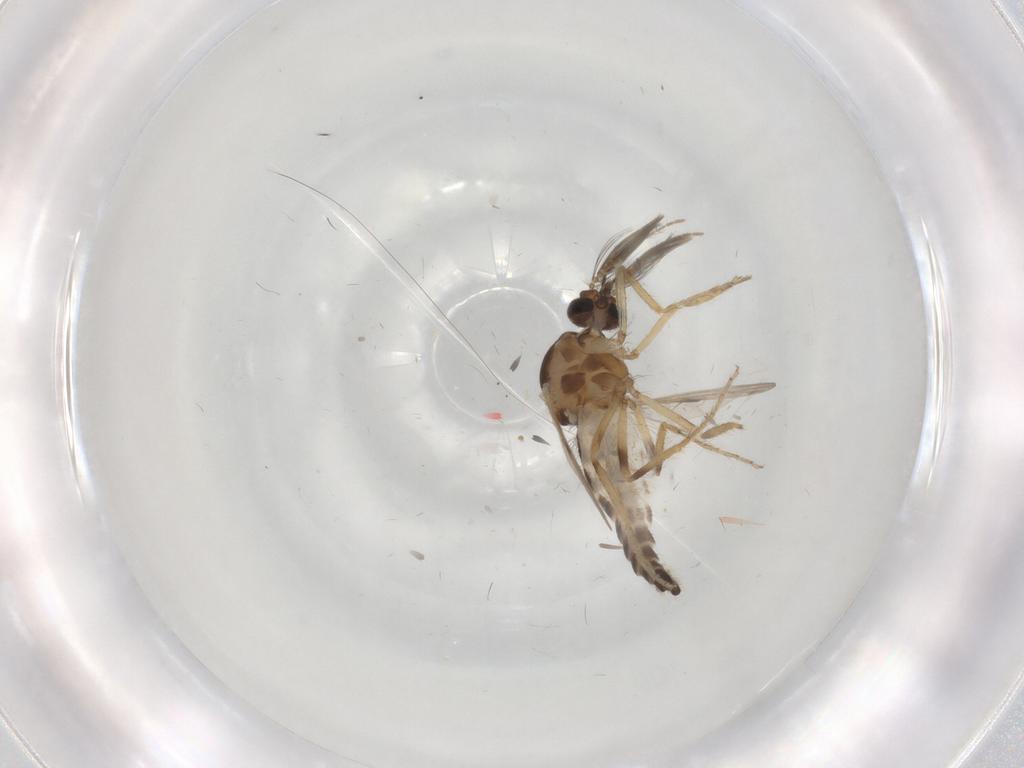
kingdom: Animalia
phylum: Arthropoda
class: Insecta
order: Diptera
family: Ceratopogonidae
